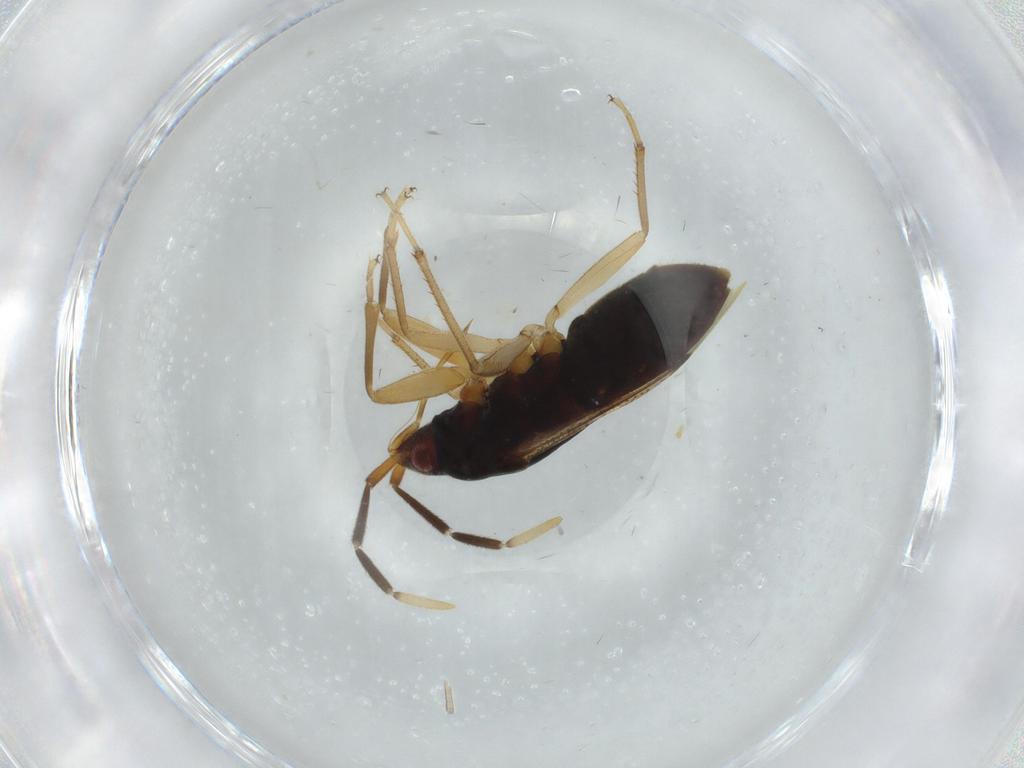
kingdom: Animalia
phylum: Arthropoda
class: Insecta
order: Hemiptera
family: Rhyparochromidae
